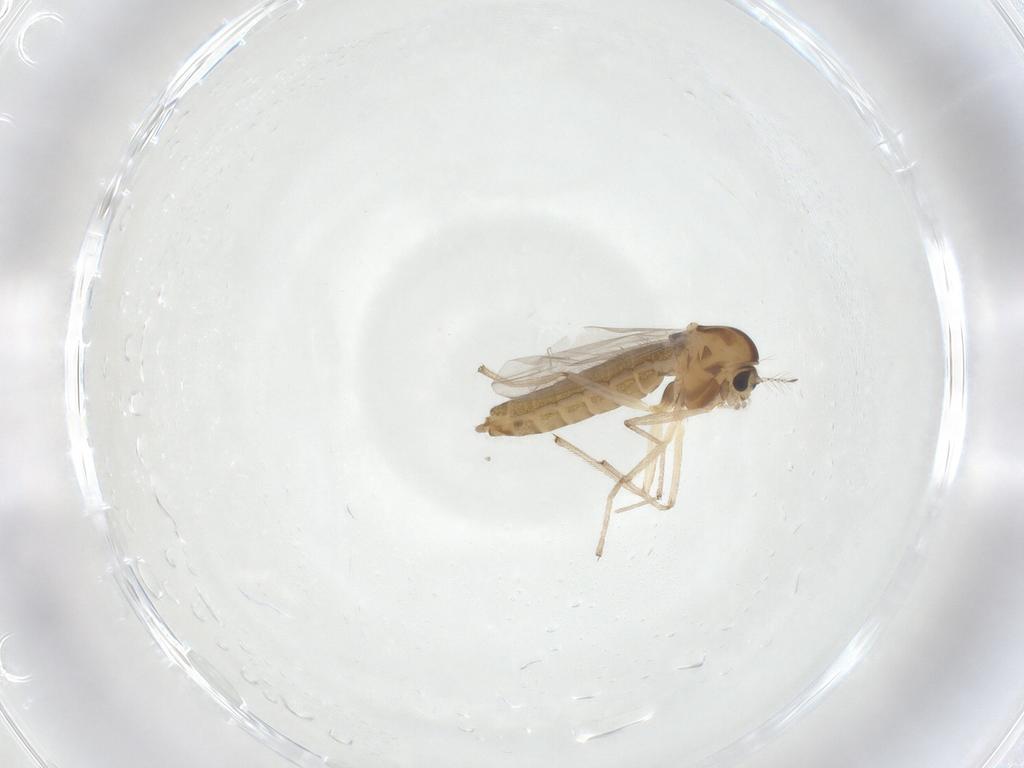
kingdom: Animalia
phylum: Arthropoda
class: Insecta
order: Diptera
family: Chironomidae
